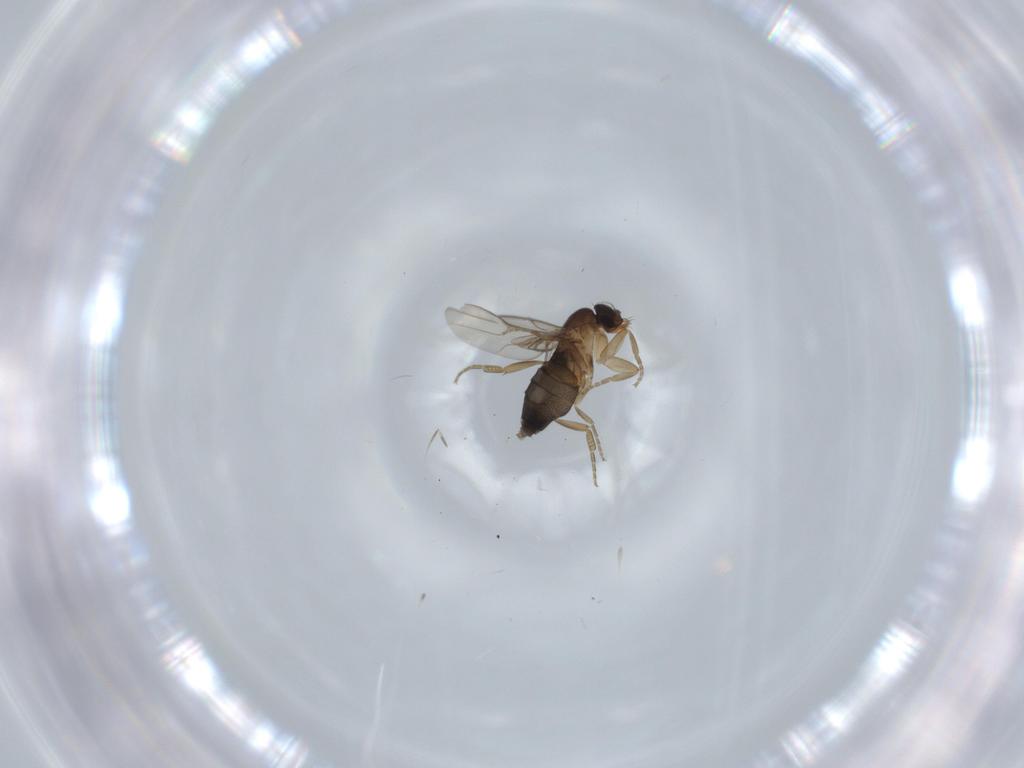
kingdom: Animalia
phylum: Arthropoda
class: Insecta
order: Diptera
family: Phoridae
